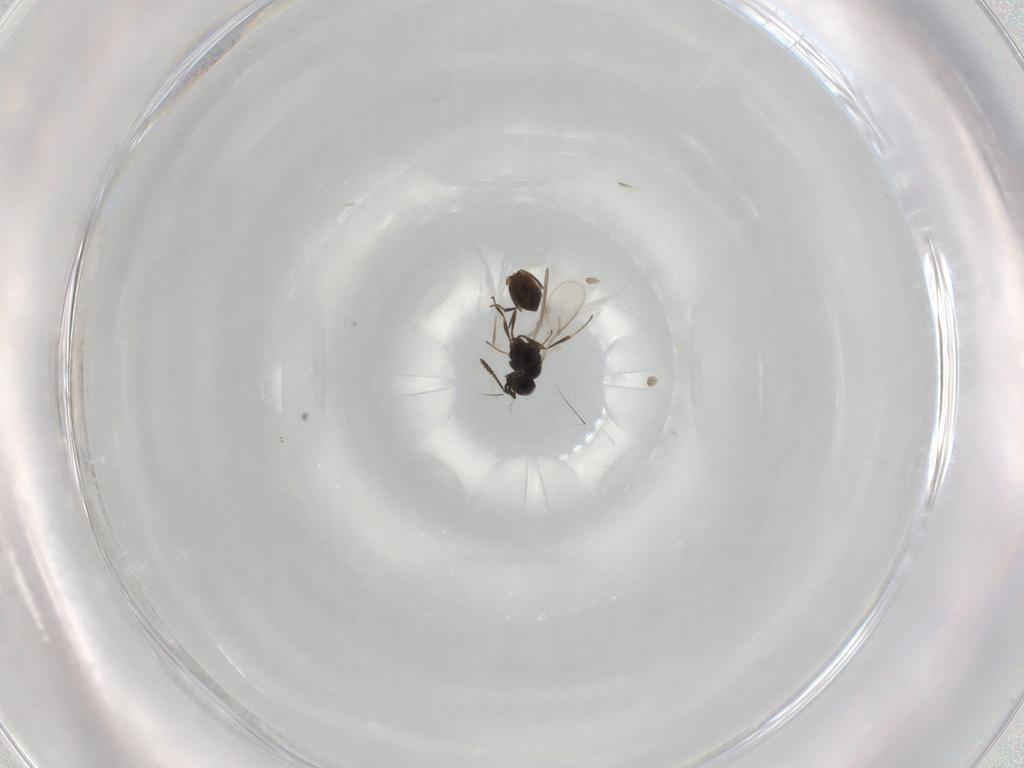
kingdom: Animalia
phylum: Arthropoda
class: Insecta
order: Hymenoptera
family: Scelionidae
